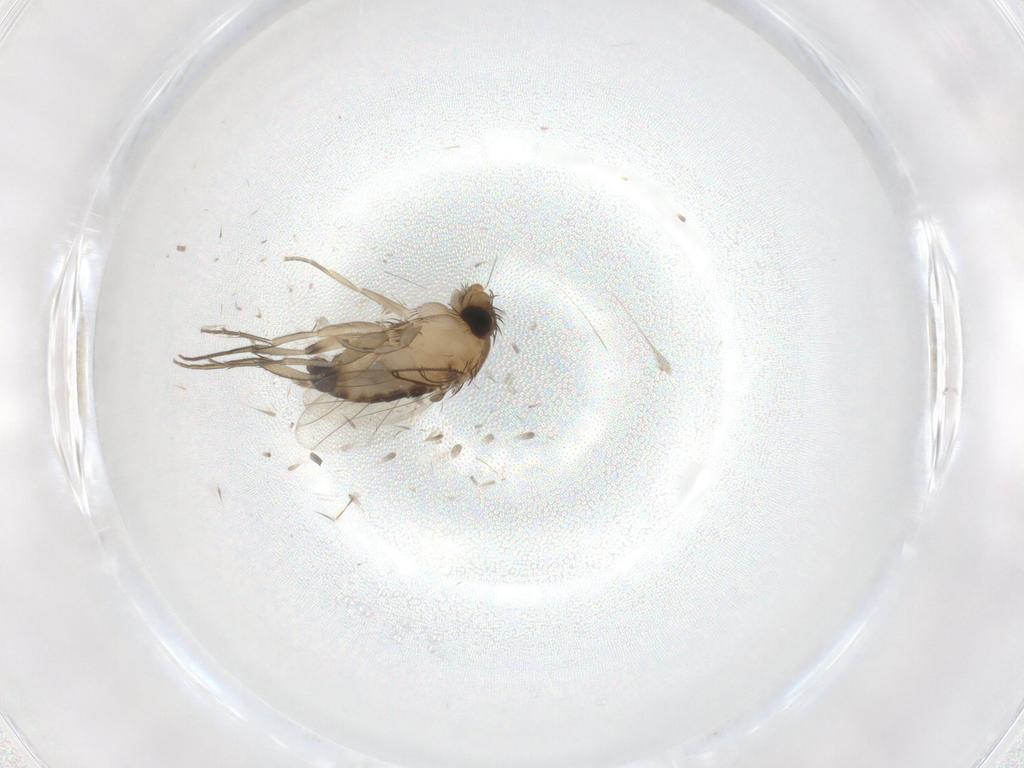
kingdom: Animalia
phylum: Arthropoda
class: Insecta
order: Diptera
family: Phoridae
